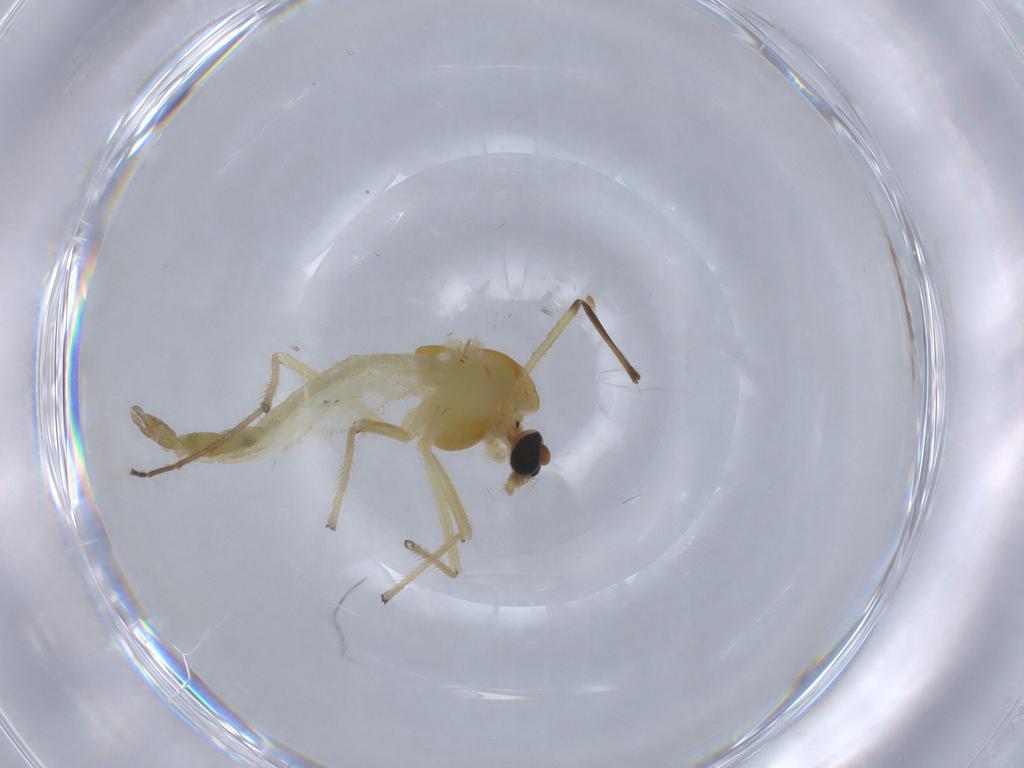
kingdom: Animalia
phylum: Arthropoda
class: Insecta
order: Diptera
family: Chironomidae
